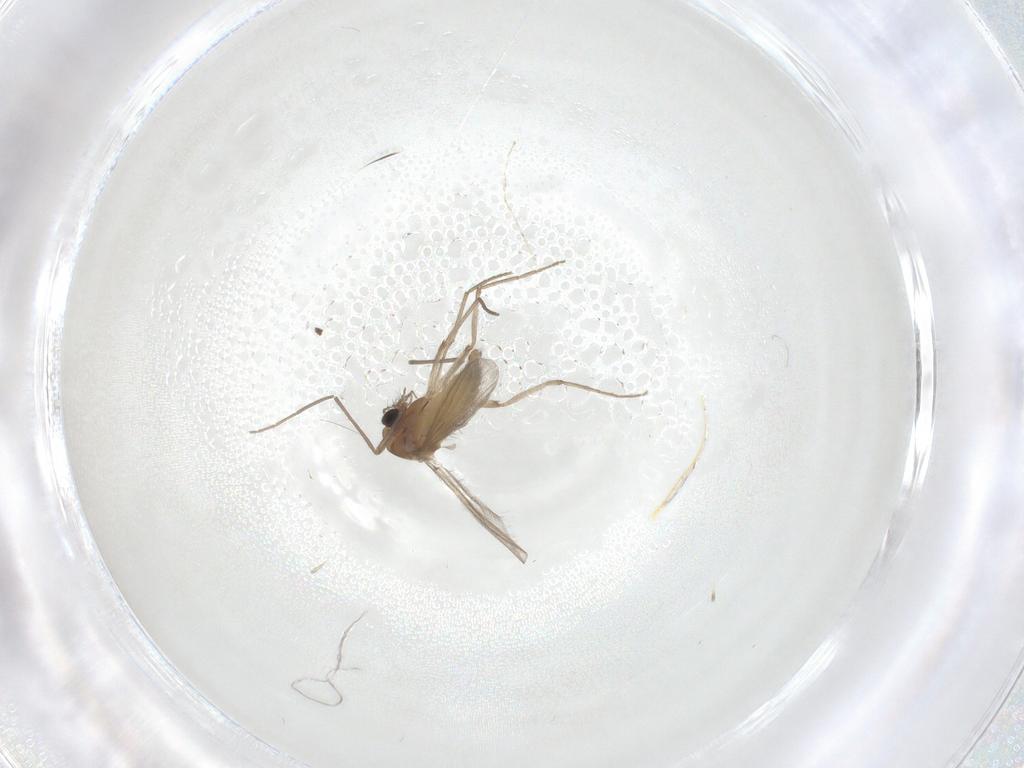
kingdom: Animalia
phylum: Arthropoda
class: Insecta
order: Diptera
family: Chironomidae
